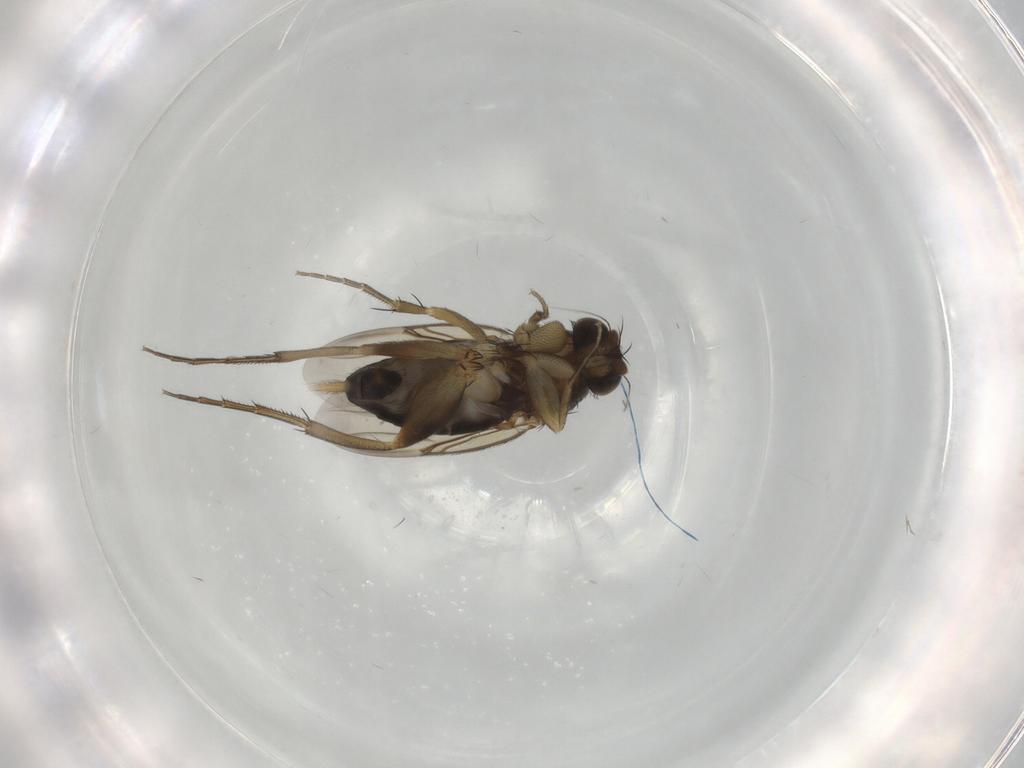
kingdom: Animalia
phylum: Arthropoda
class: Insecta
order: Diptera
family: Phoridae
